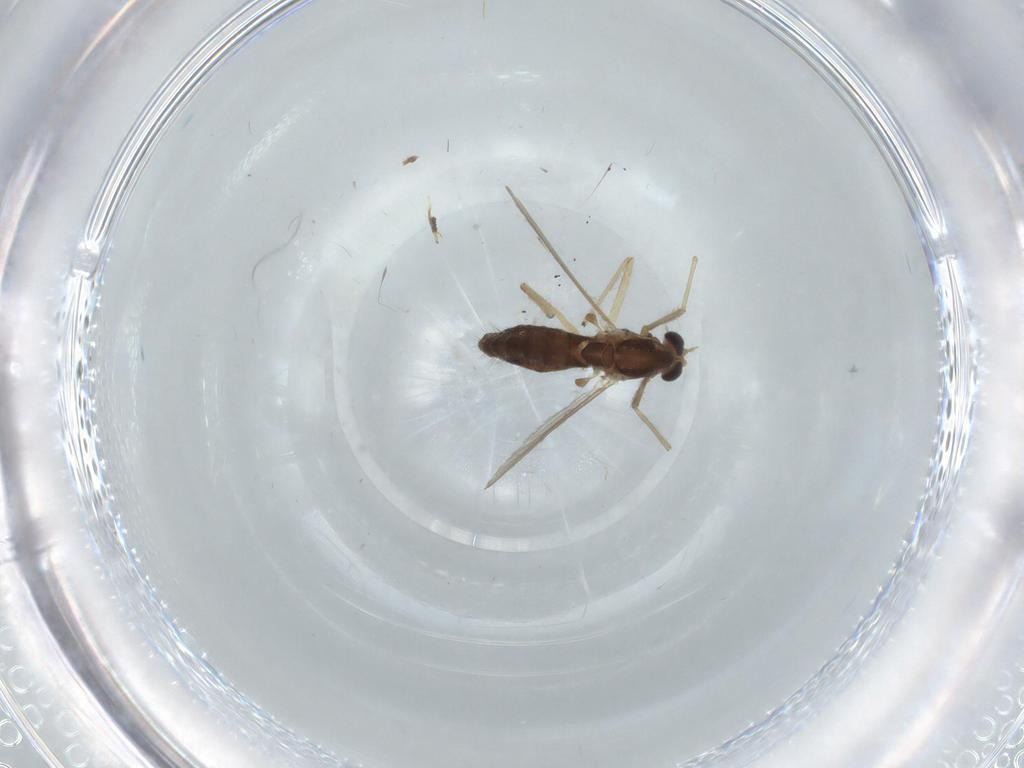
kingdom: Animalia
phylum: Arthropoda
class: Insecta
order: Diptera
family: Chironomidae
